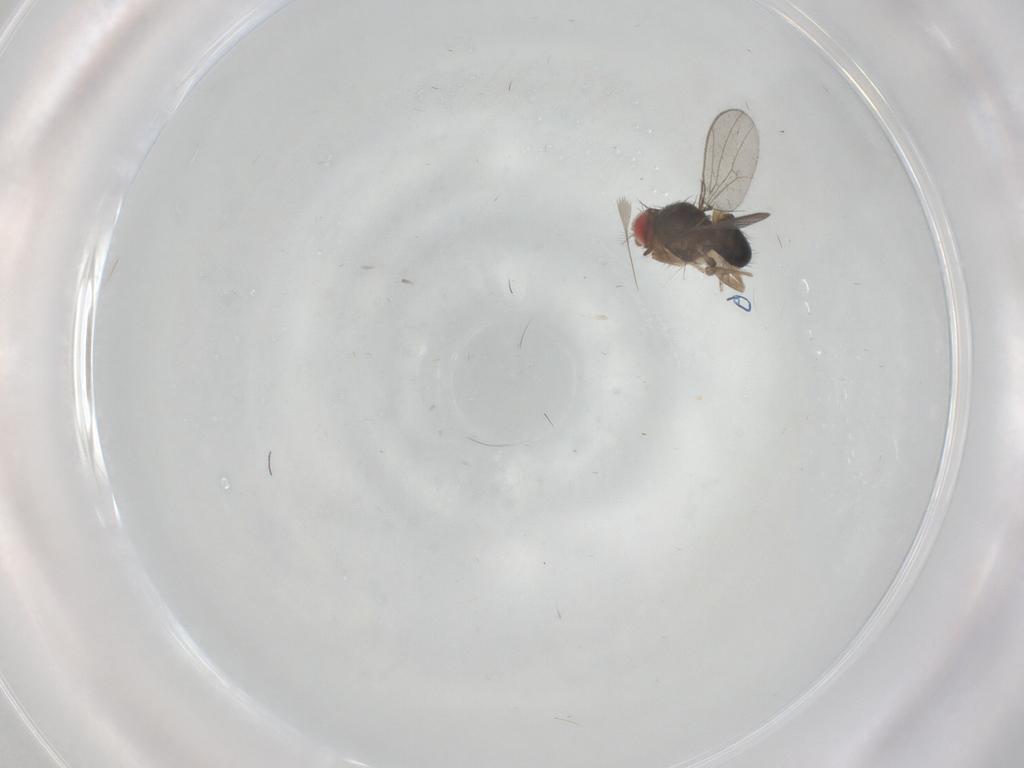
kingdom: Animalia
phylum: Arthropoda
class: Insecta
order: Diptera
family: Drosophilidae
